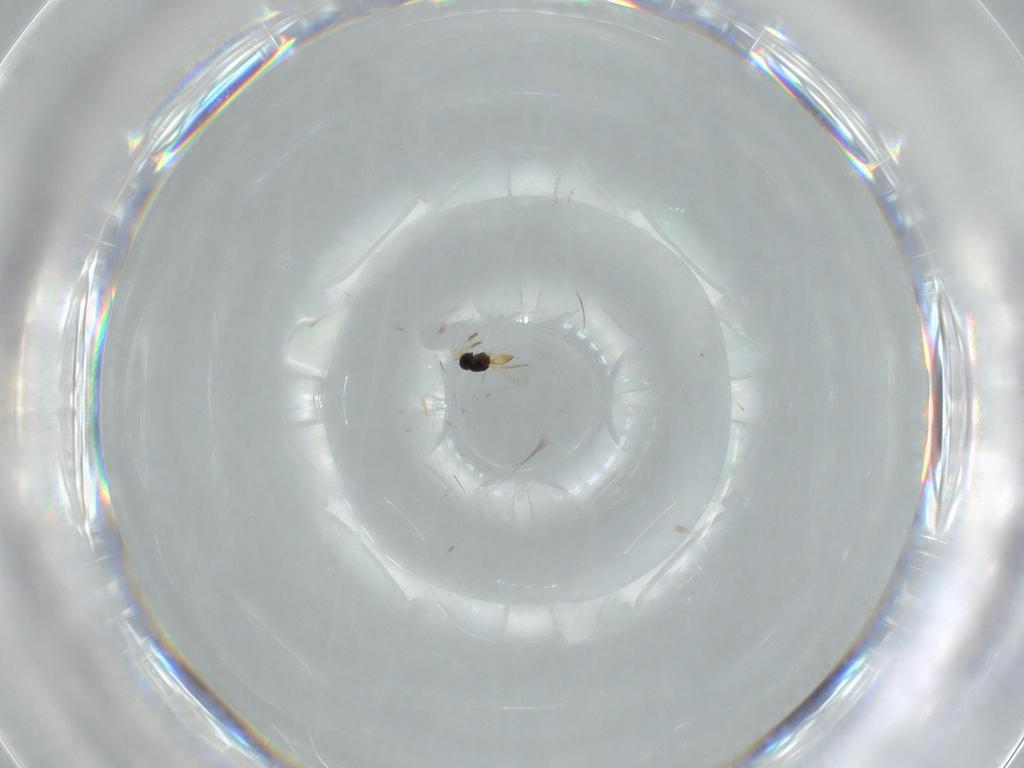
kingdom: Animalia
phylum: Arthropoda
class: Insecta
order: Hymenoptera
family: Scelionidae
